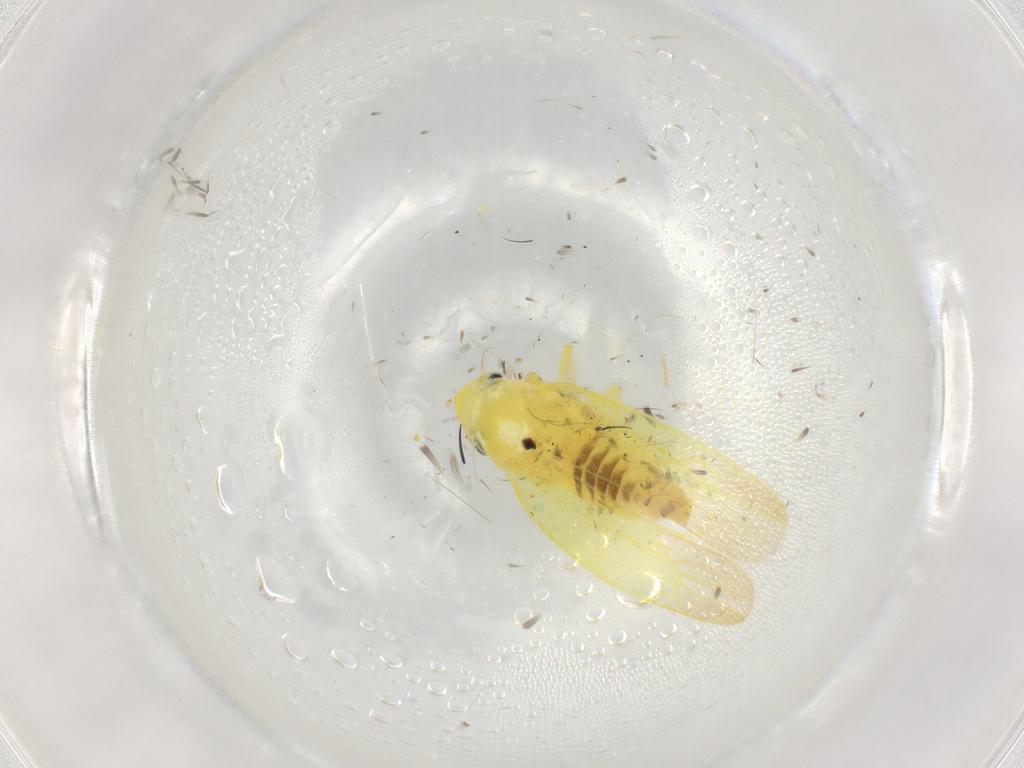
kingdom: Animalia
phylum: Arthropoda
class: Insecta
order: Hemiptera
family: Cicadellidae
